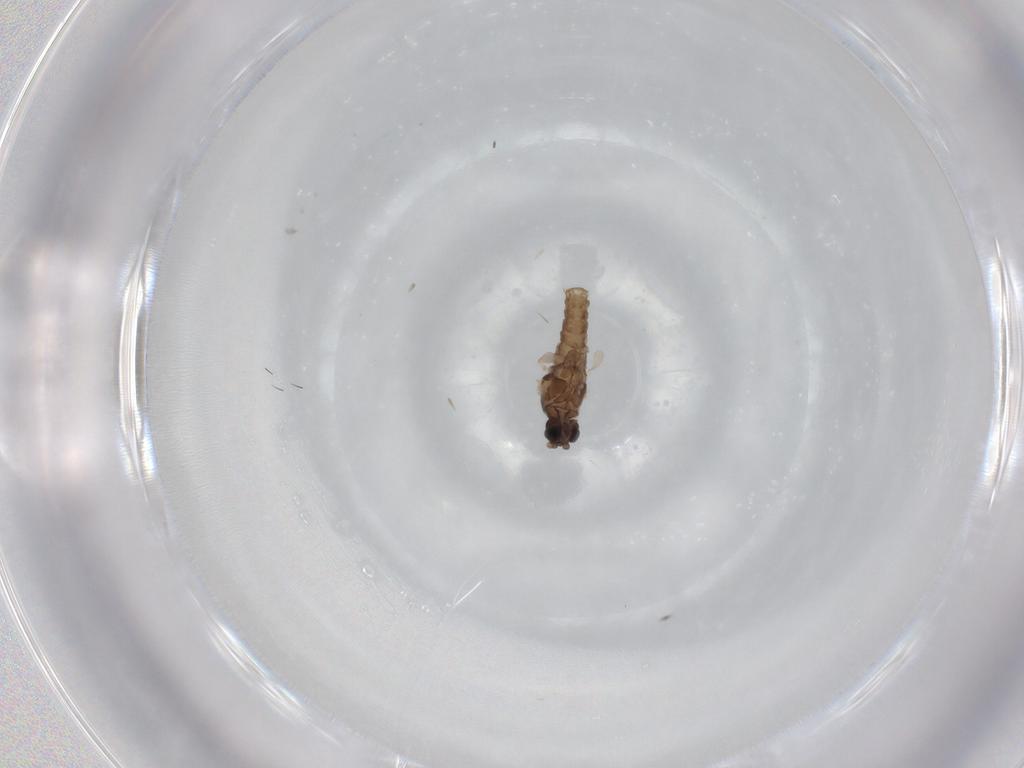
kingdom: Animalia
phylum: Arthropoda
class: Insecta
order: Diptera
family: Cecidomyiidae
